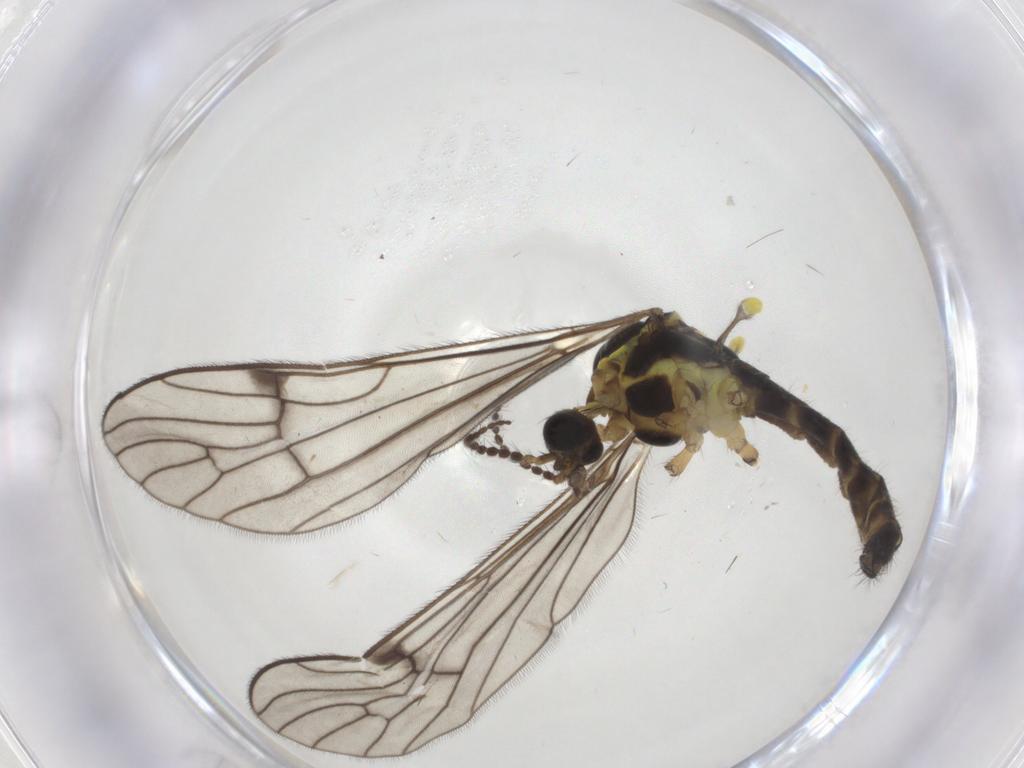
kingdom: Animalia
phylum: Arthropoda
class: Insecta
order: Diptera
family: Limoniidae
